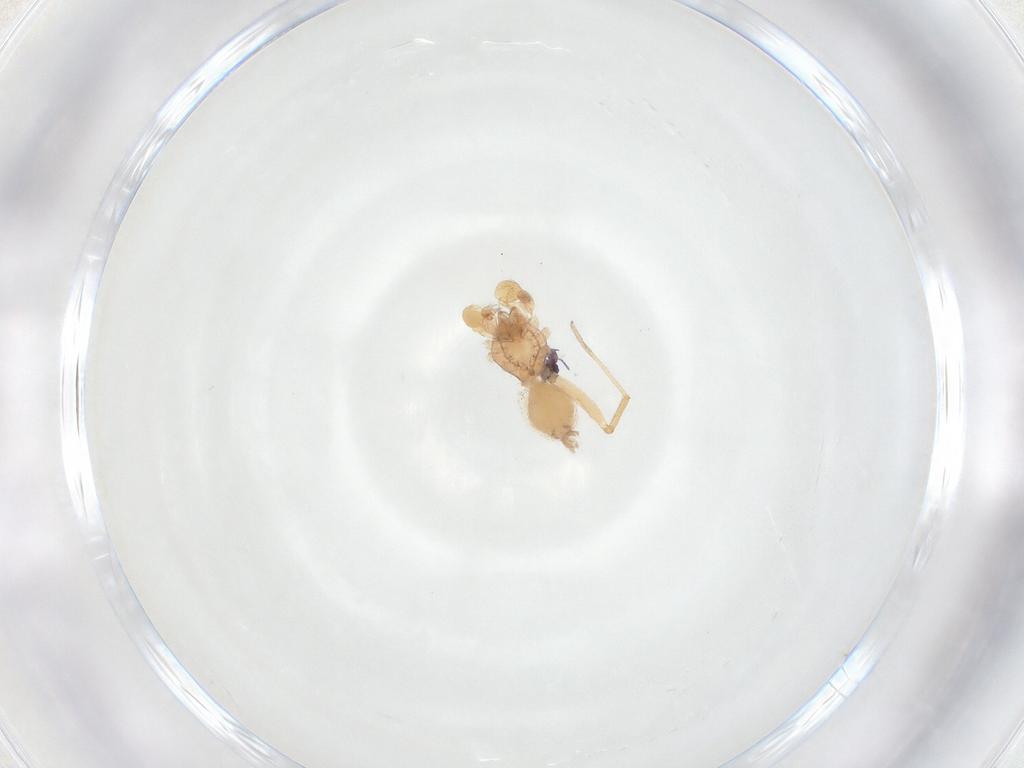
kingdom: Animalia
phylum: Arthropoda
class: Collembola
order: Symphypleona
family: Sminthurididae
